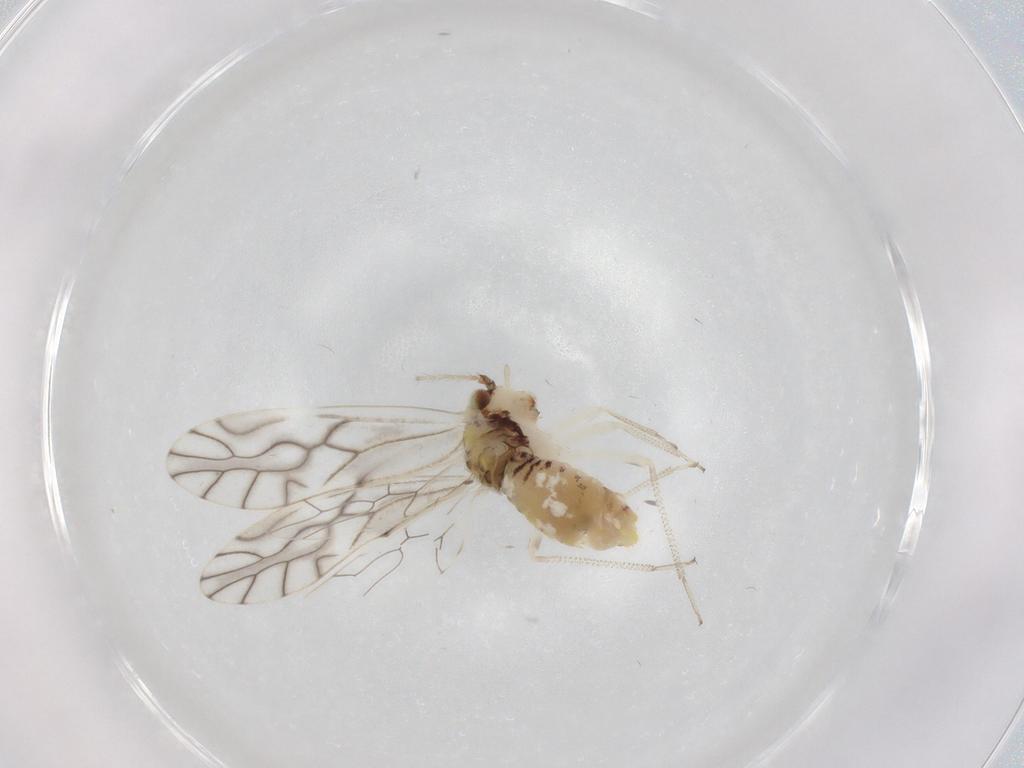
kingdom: Animalia
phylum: Arthropoda
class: Insecta
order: Psocodea
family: Caeciliusidae
